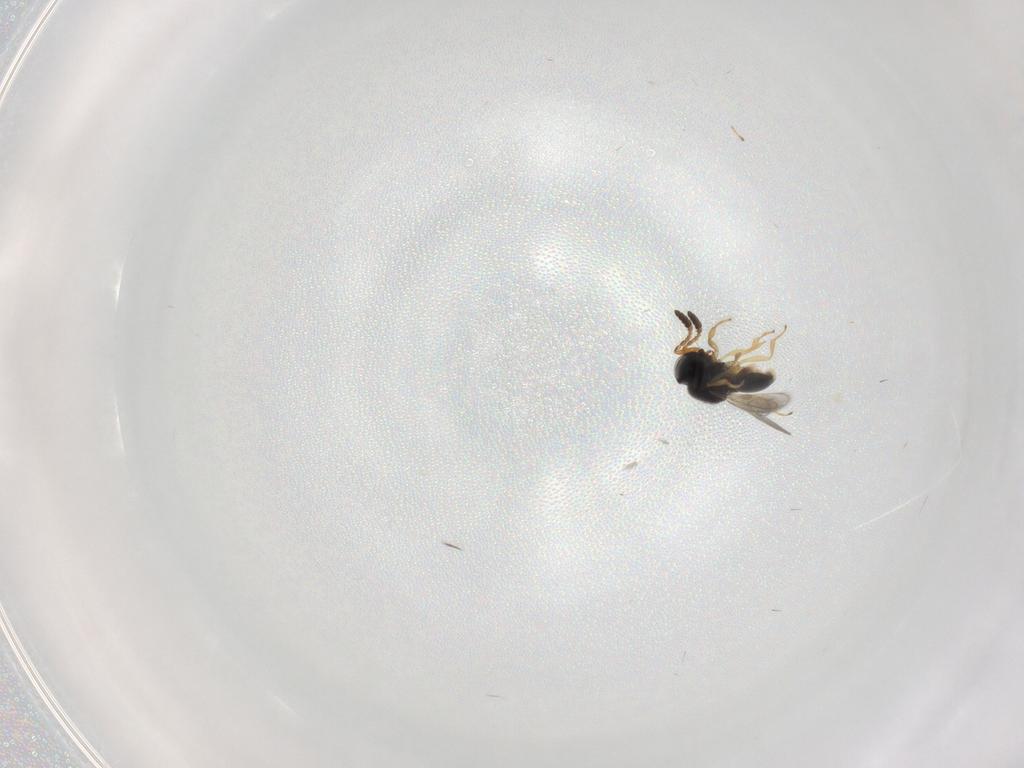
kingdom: Animalia
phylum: Arthropoda
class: Insecta
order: Hymenoptera
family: Scelionidae
